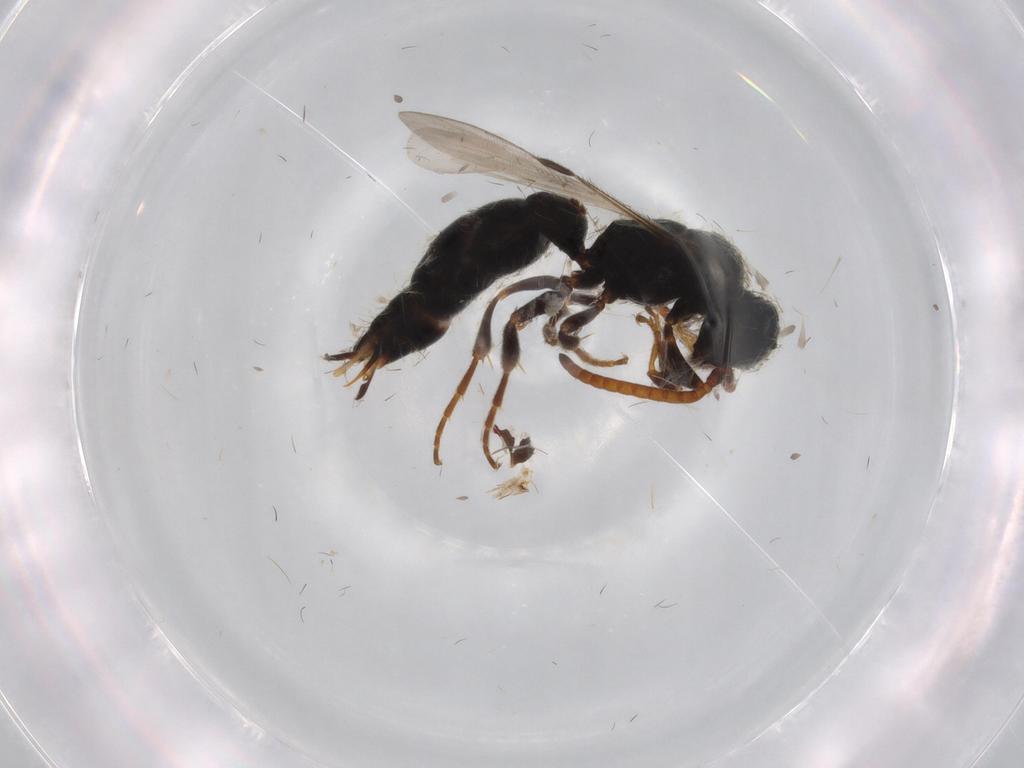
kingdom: Animalia
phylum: Arthropoda
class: Insecta
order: Hymenoptera
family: Tiphiidae
